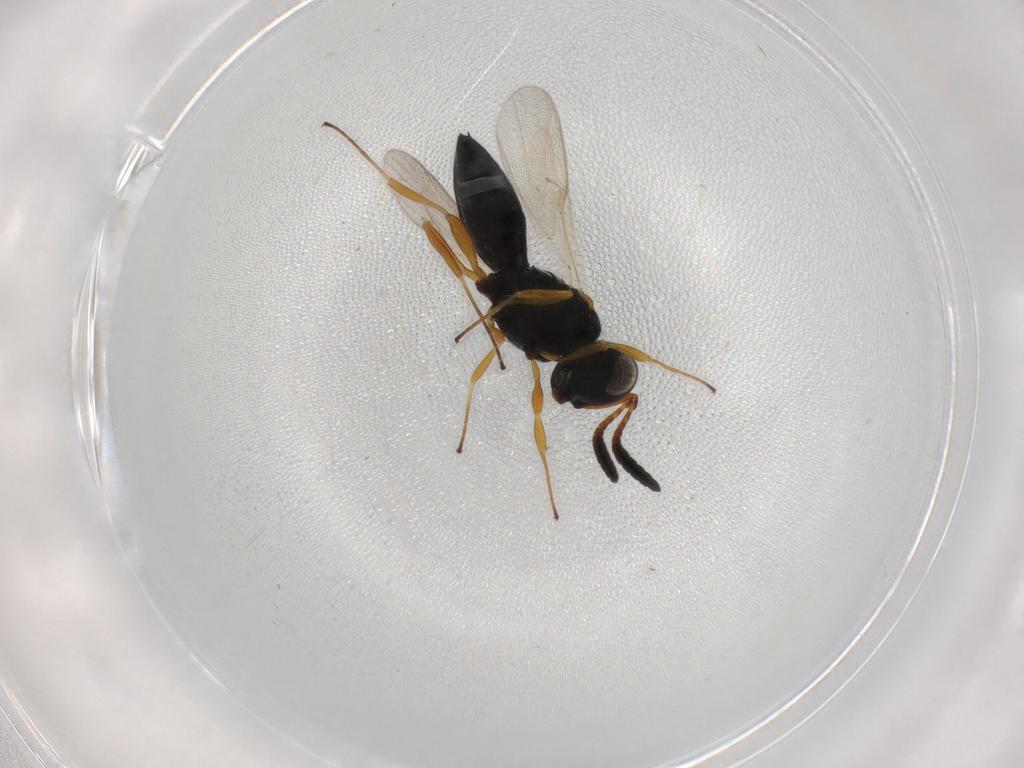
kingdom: Animalia
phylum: Arthropoda
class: Insecta
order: Hymenoptera
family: Scelionidae
